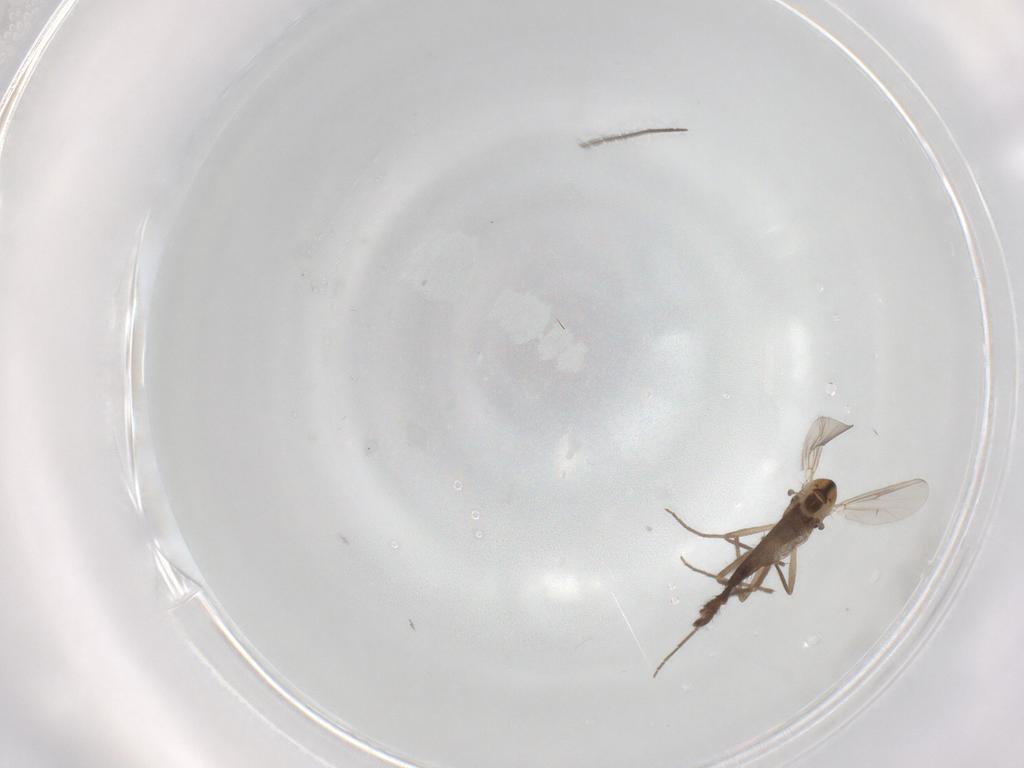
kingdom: Animalia
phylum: Arthropoda
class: Insecta
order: Diptera
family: Chironomidae
